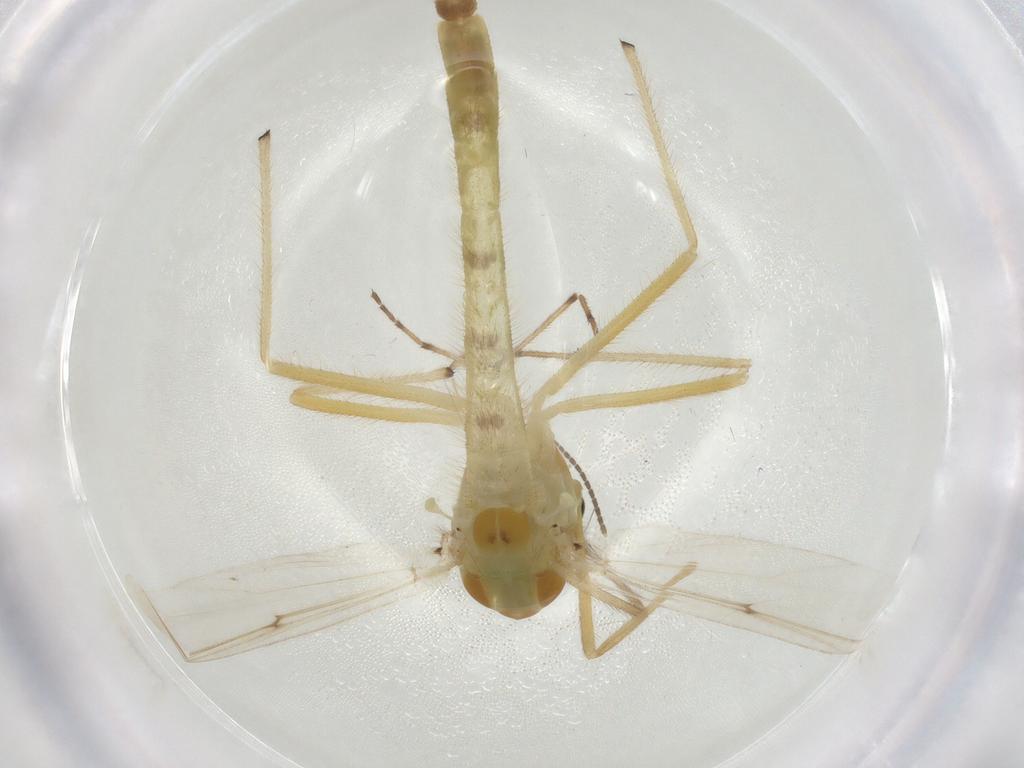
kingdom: Animalia
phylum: Arthropoda
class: Insecta
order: Diptera
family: Chironomidae
